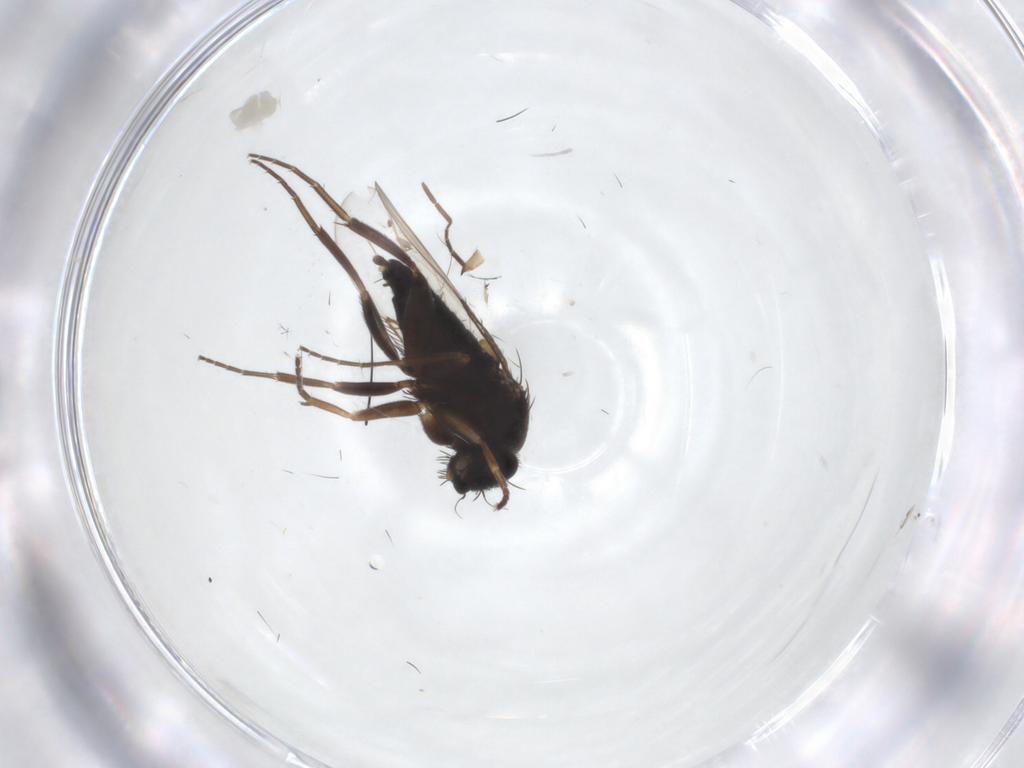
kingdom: Animalia
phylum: Arthropoda
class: Insecta
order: Diptera
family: Phoridae
